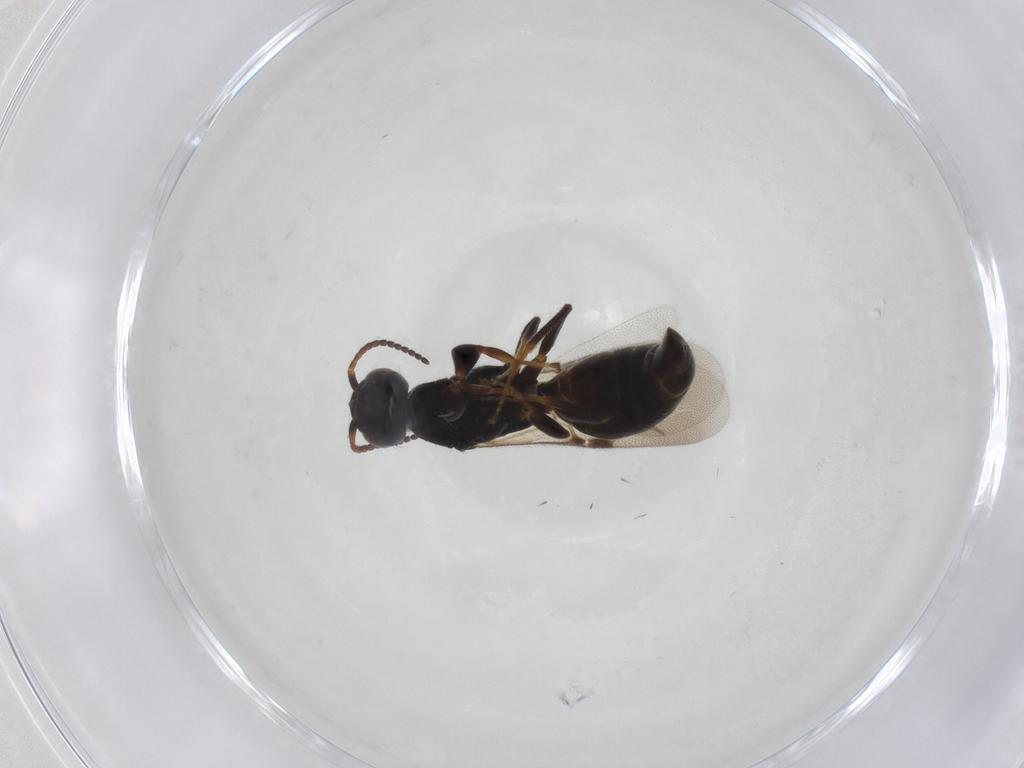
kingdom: Animalia
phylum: Arthropoda
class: Insecta
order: Hymenoptera
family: Bethylidae
